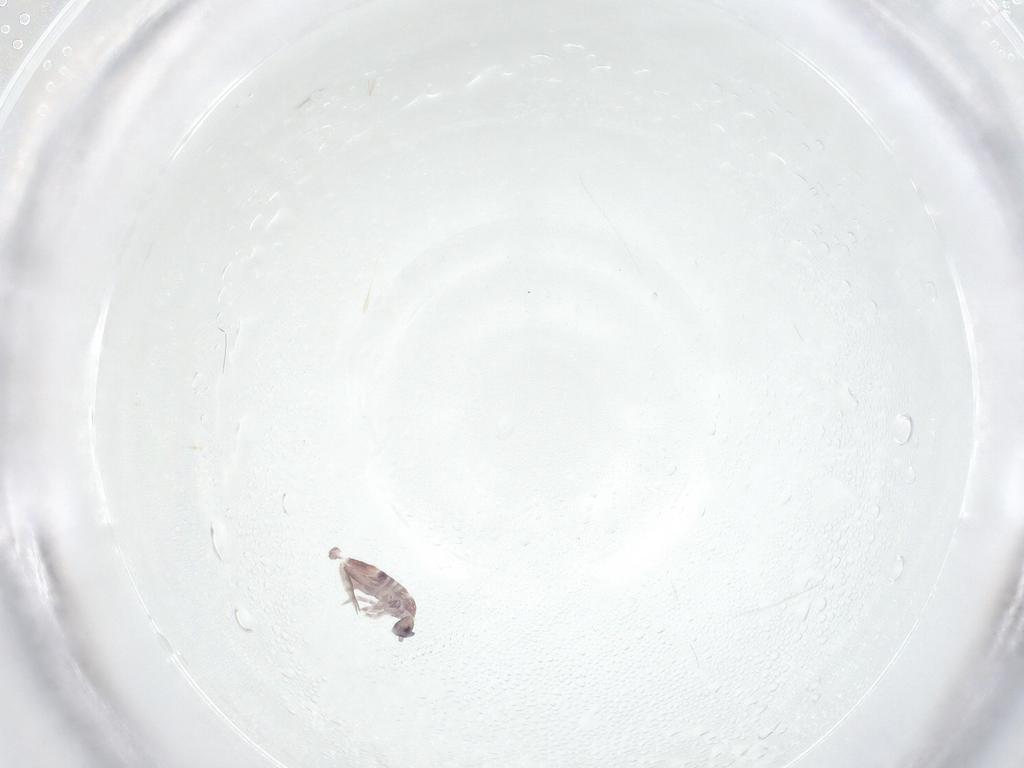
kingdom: Animalia
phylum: Arthropoda
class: Collembola
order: Entomobryomorpha
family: Entomobryidae
